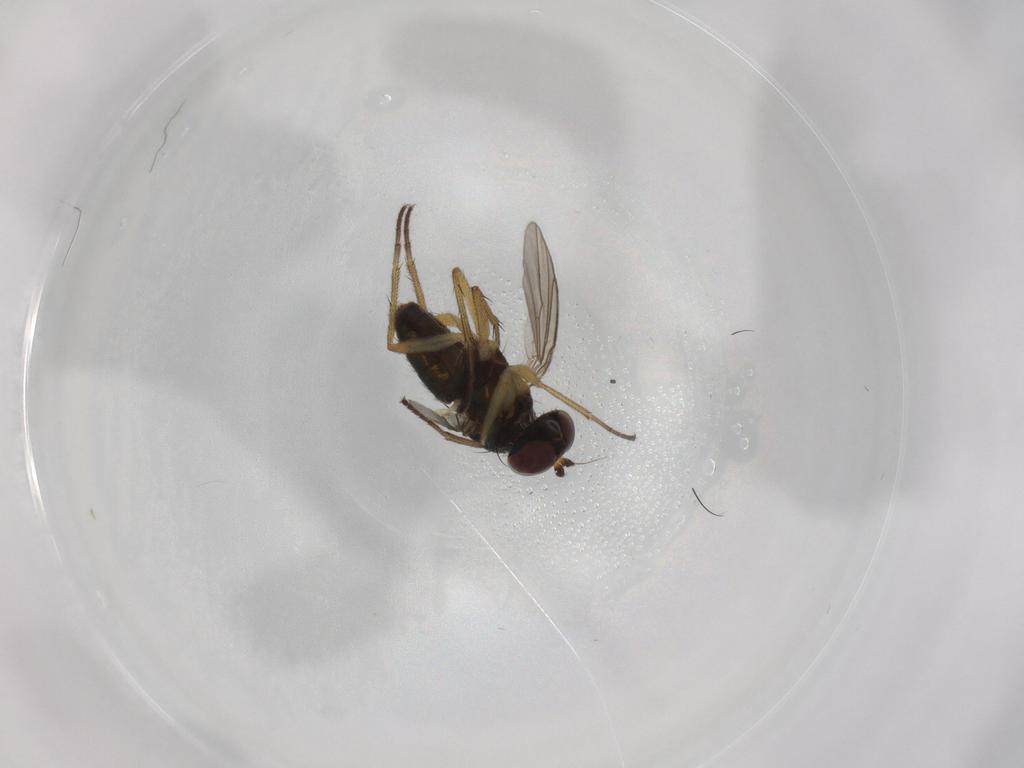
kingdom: Animalia
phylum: Arthropoda
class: Insecta
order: Diptera
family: Dolichopodidae
